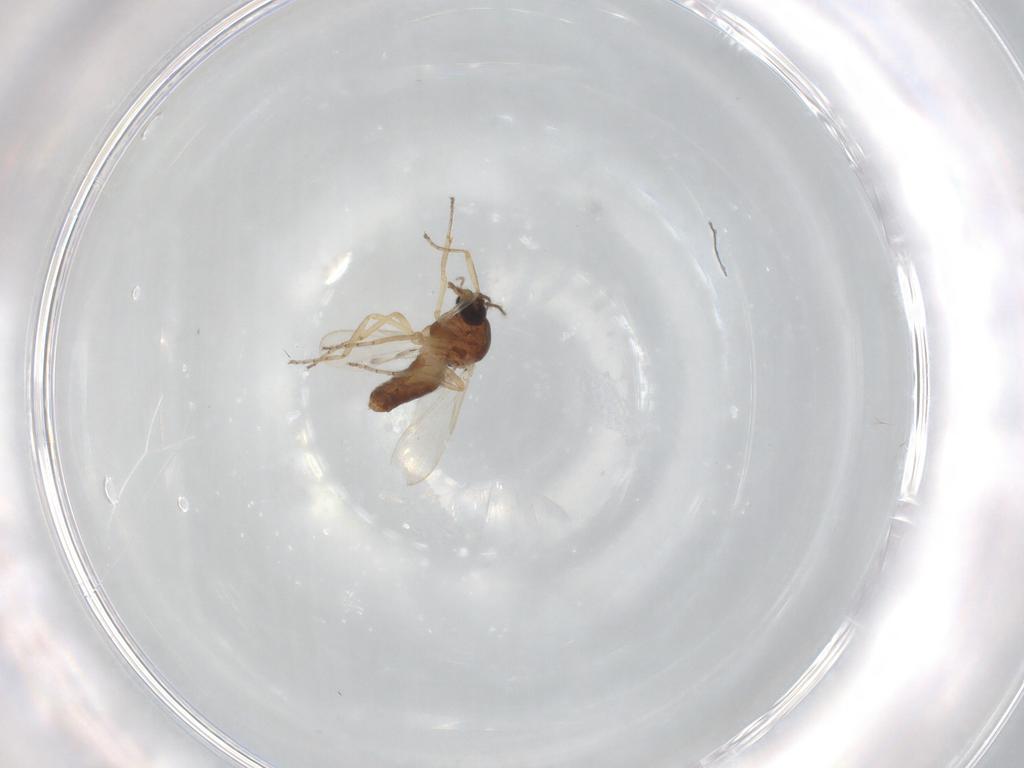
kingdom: Animalia
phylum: Arthropoda
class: Insecta
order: Diptera
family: Ceratopogonidae
